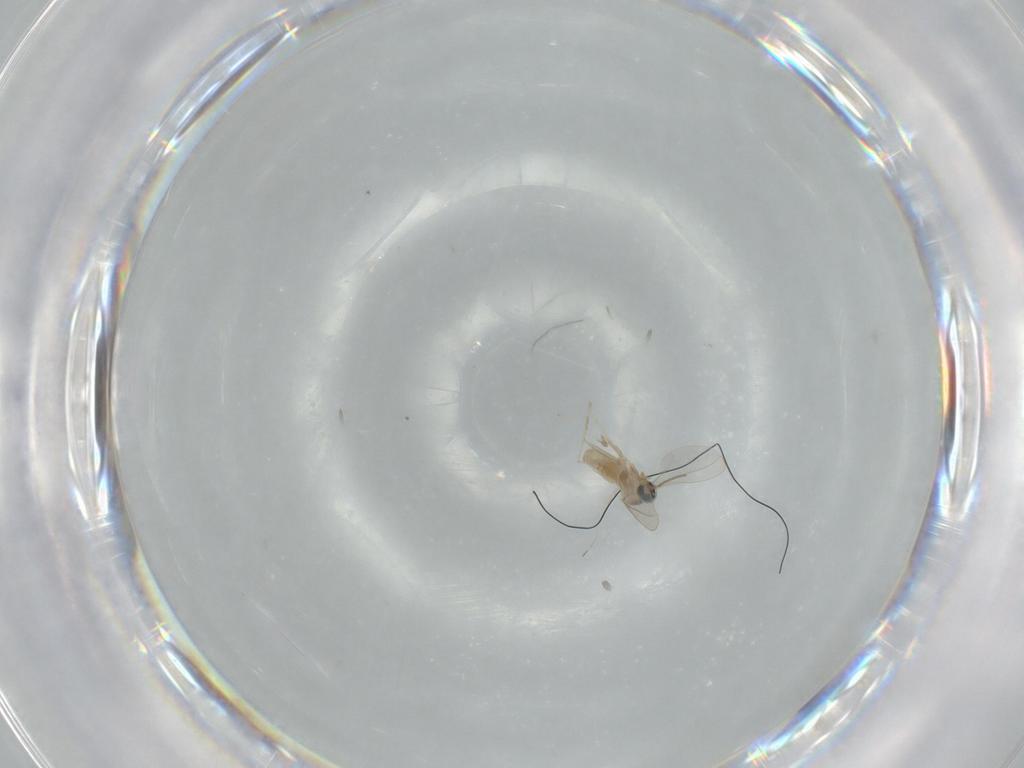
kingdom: Animalia
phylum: Arthropoda
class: Insecta
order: Diptera
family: Cecidomyiidae
